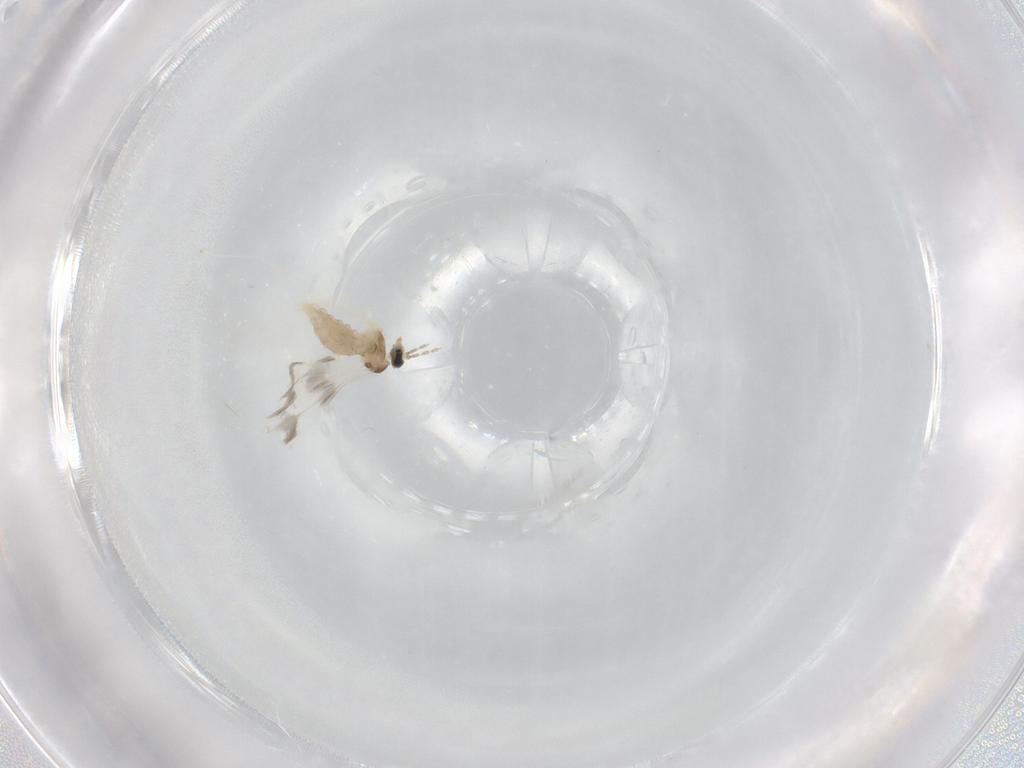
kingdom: Animalia
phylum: Arthropoda
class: Insecta
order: Diptera
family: Cecidomyiidae
